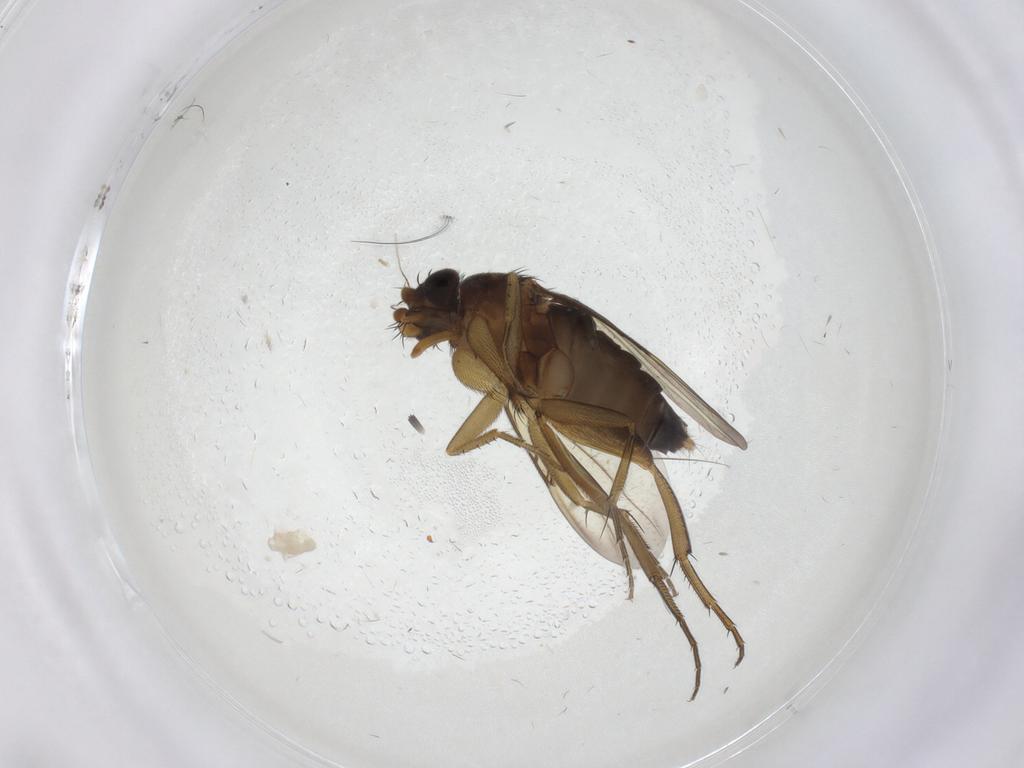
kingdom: Animalia
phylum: Arthropoda
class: Insecta
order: Diptera
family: Phoridae
